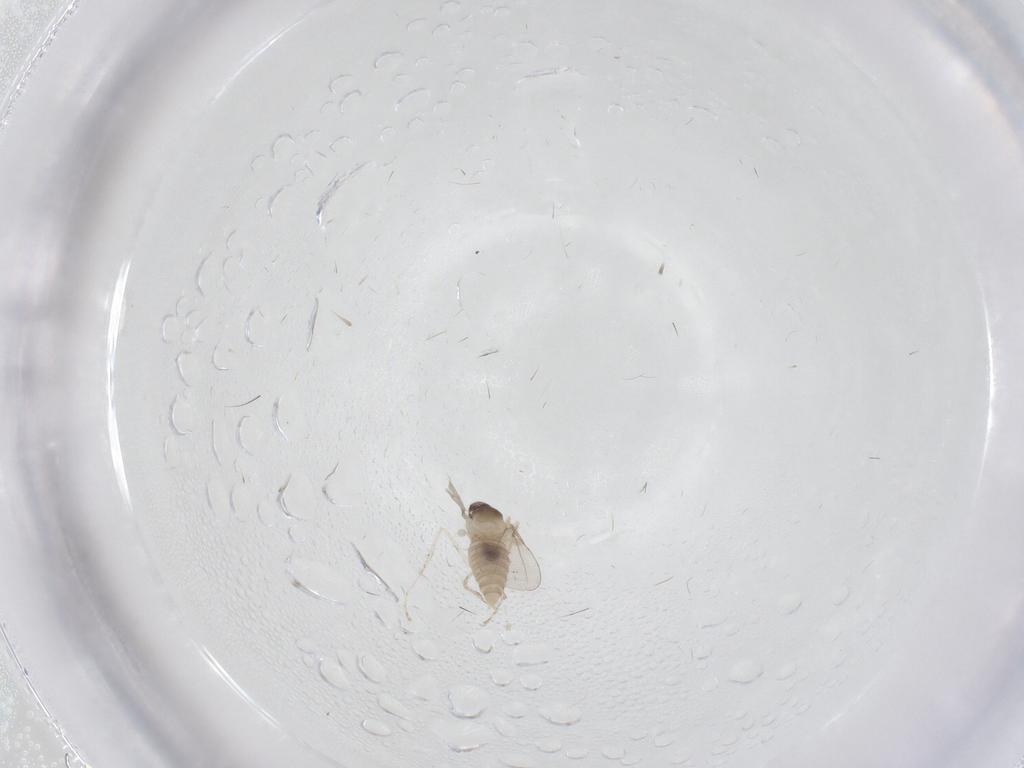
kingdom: Animalia
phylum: Arthropoda
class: Insecta
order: Diptera
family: Cecidomyiidae
